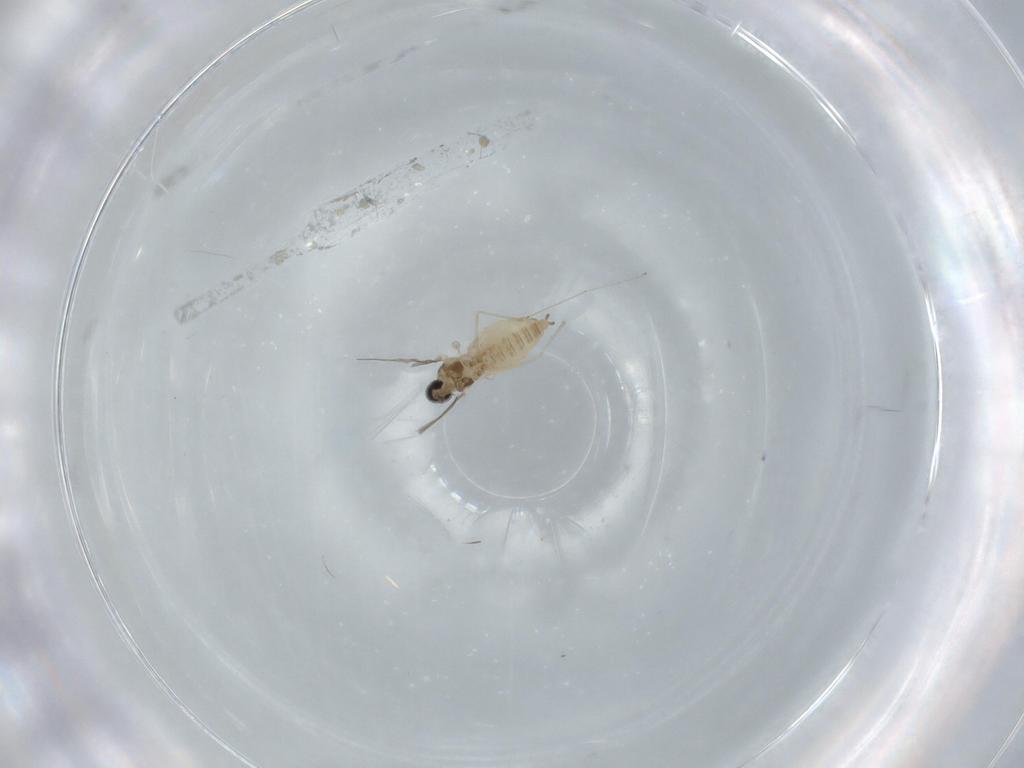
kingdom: Animalia
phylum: Arthropoda
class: Insecta
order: Diptera
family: Cecidomyiidae
